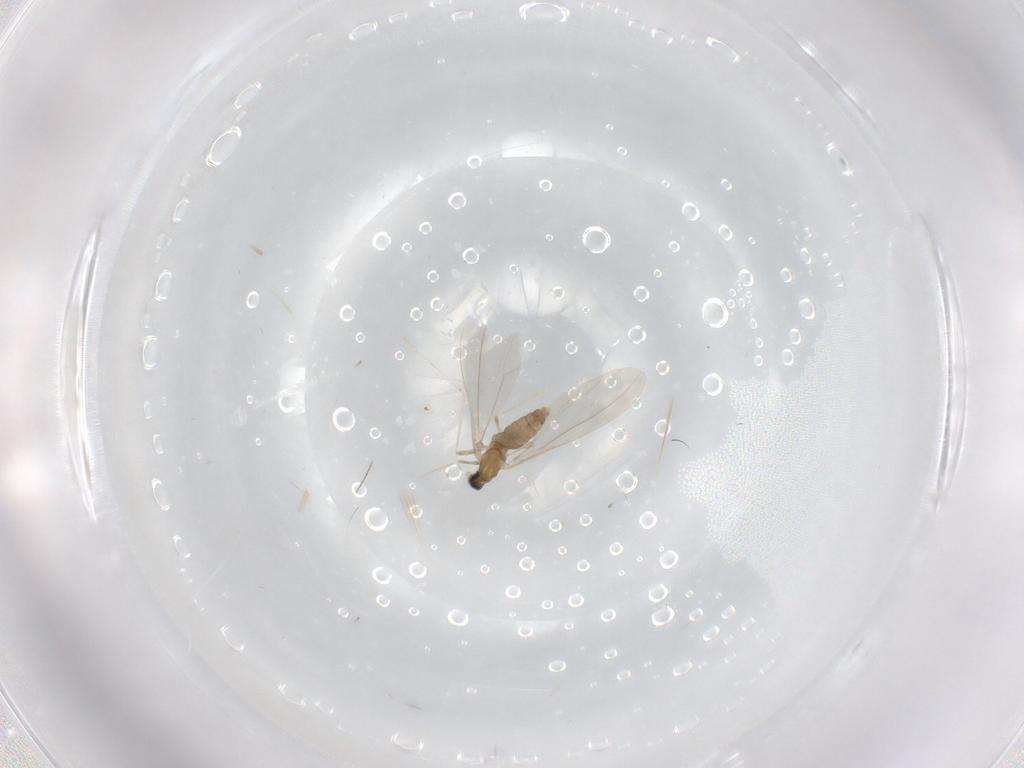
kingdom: Animalia
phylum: Arthropoda
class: Insecta
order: Diptera
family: Cecidomyiidae
